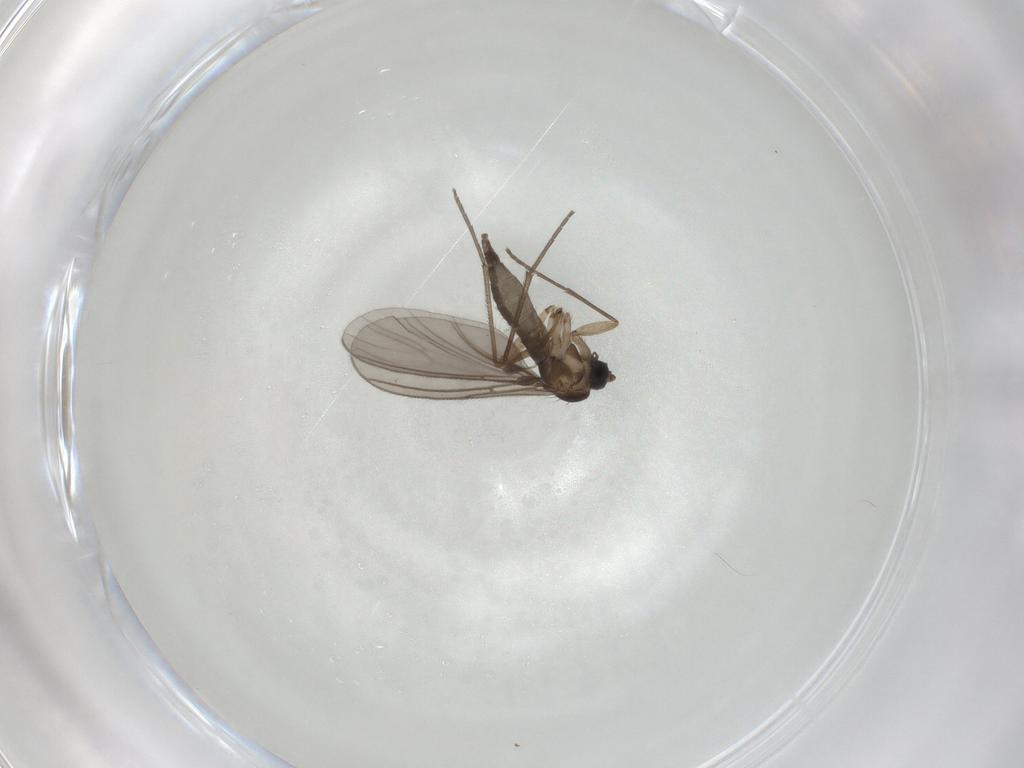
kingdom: Animalia
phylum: Arthropoda
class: Insecta
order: Diptera
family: Sciaridae
